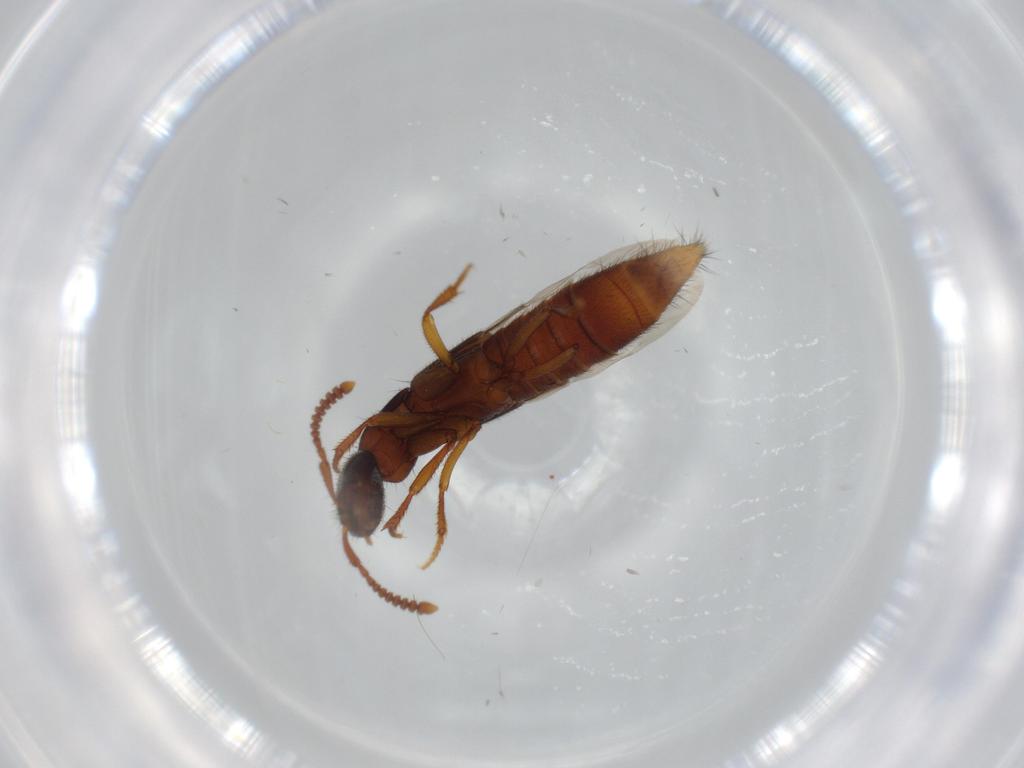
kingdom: Animalia
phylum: Arthropoda
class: Insecta
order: Coleoptera
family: Staphylinidae
